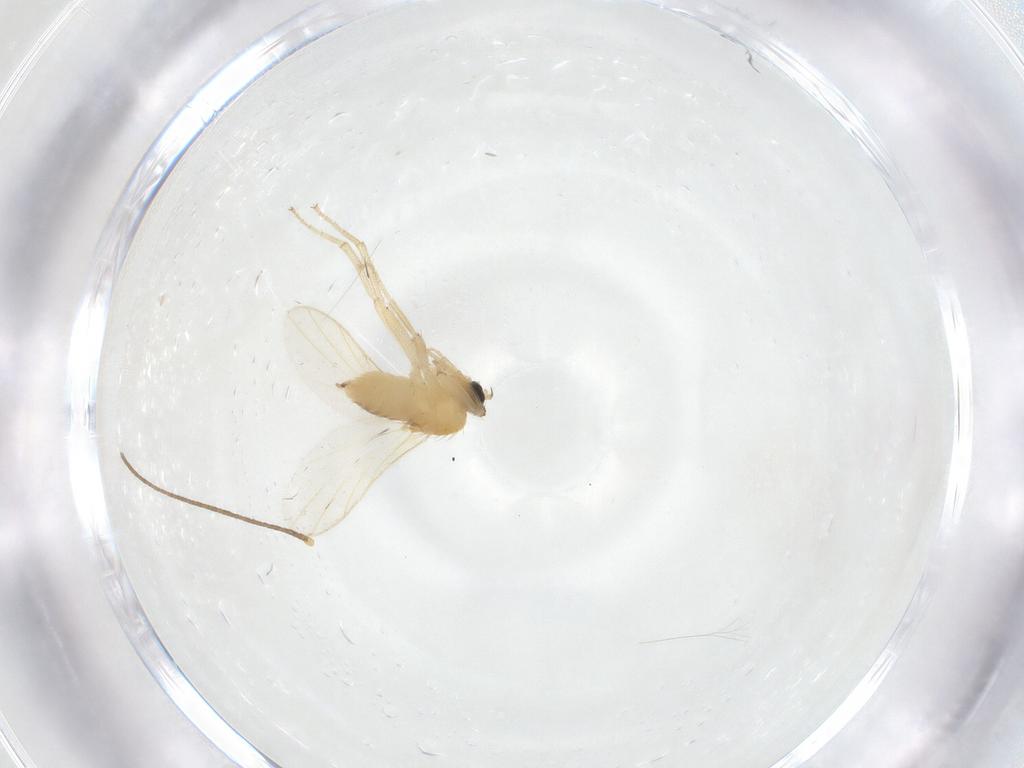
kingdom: Animalia
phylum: Arthropoda
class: Insecta
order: Diptera
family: Hybotidae
